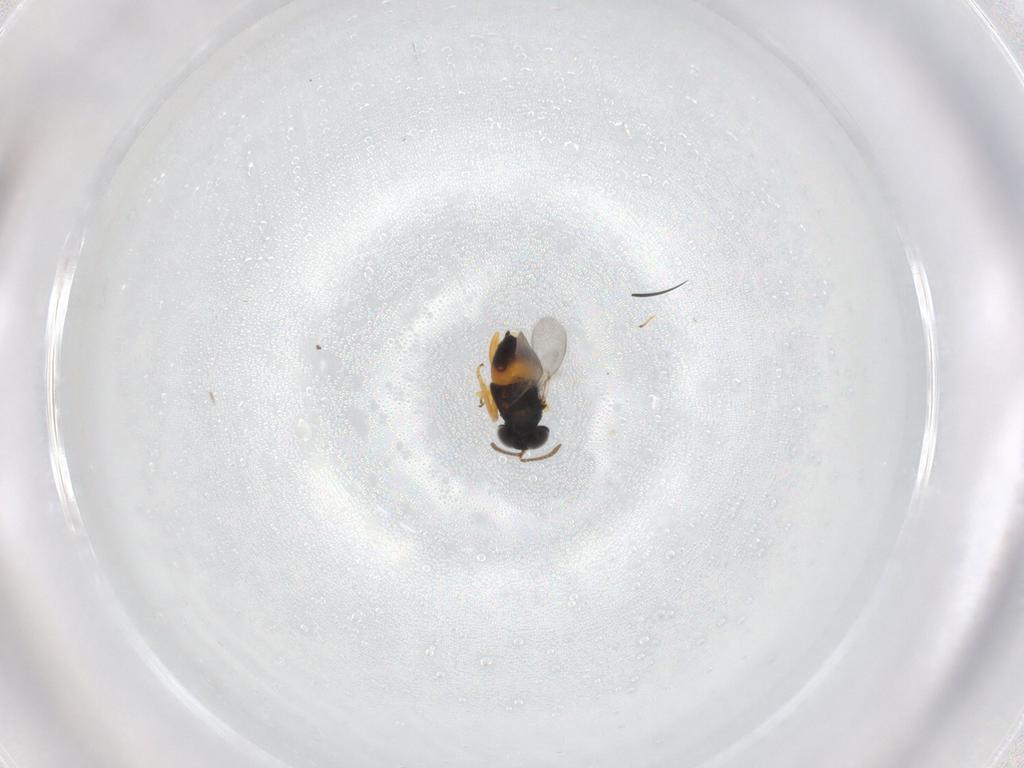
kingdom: Animalia
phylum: Arthropoda
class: Insecta
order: Hymenoptera
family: Encyrtidae
